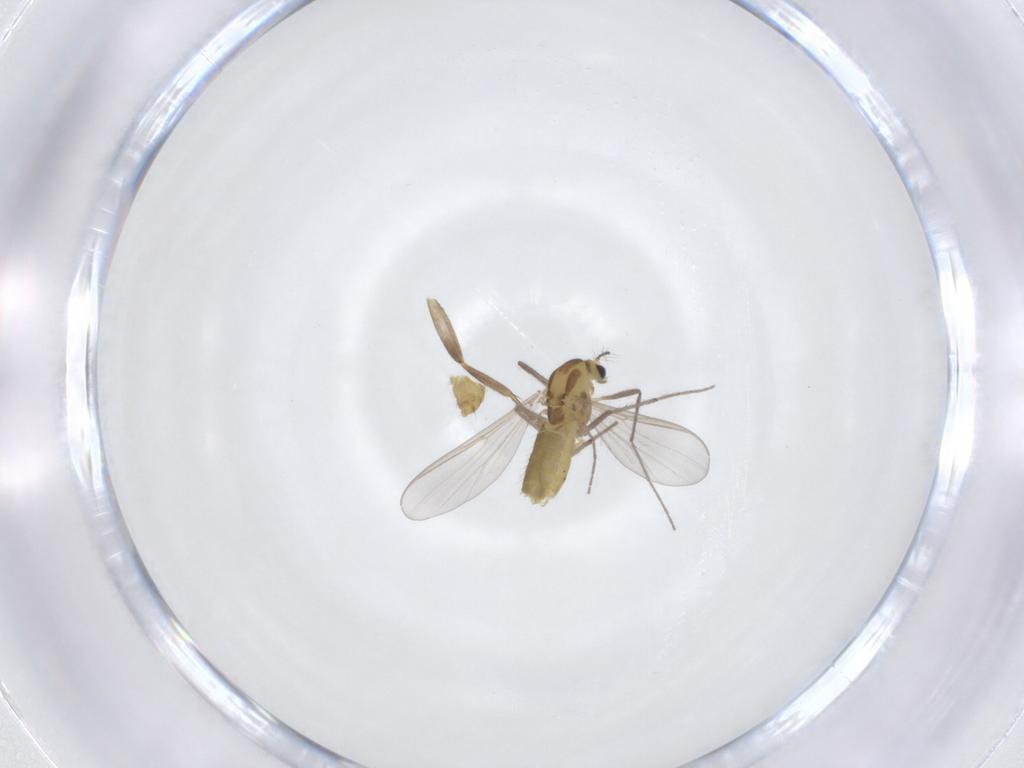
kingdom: Animalia
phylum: Arthropoda
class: Insecta
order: Diptera
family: Chironomidae
